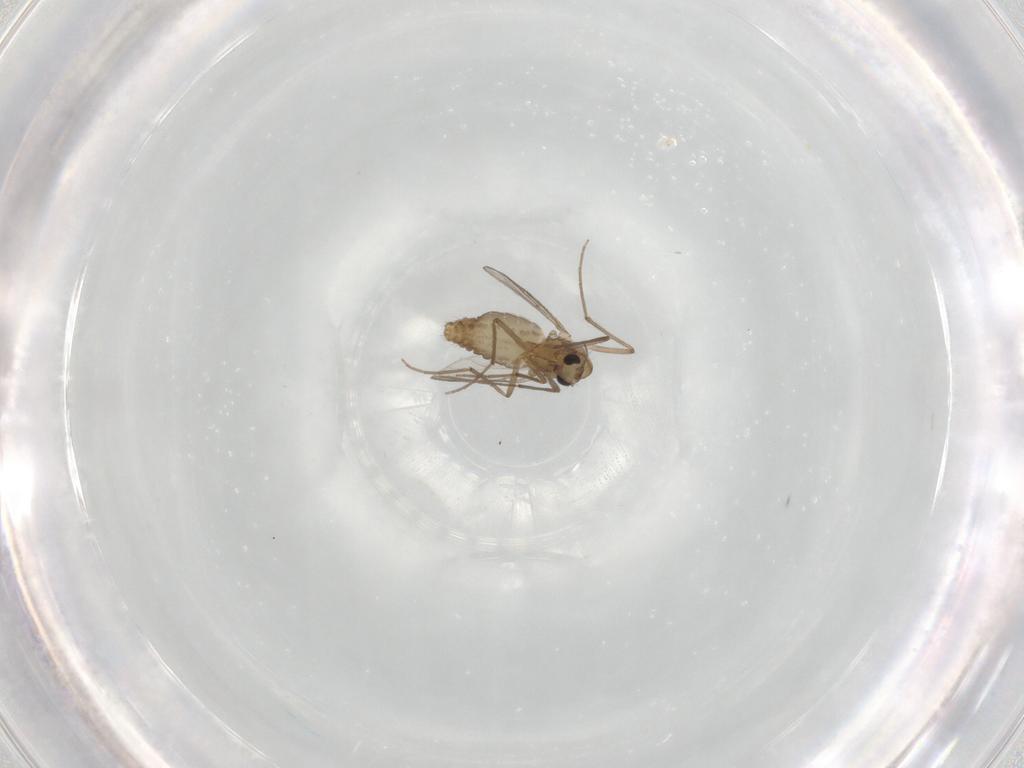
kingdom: Animalia
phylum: Arthropoda
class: Insecta
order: Diptera
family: Chironomidae
